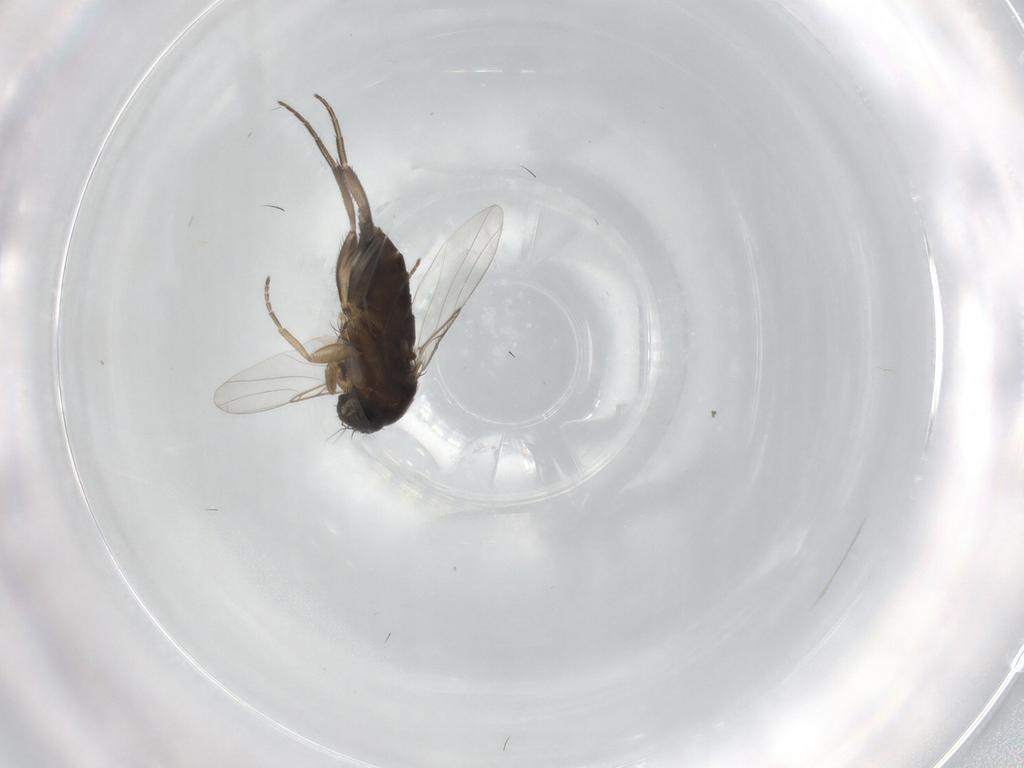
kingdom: Animalia
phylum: Arthropoda
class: Insecta
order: Diptera
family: Phoridae
